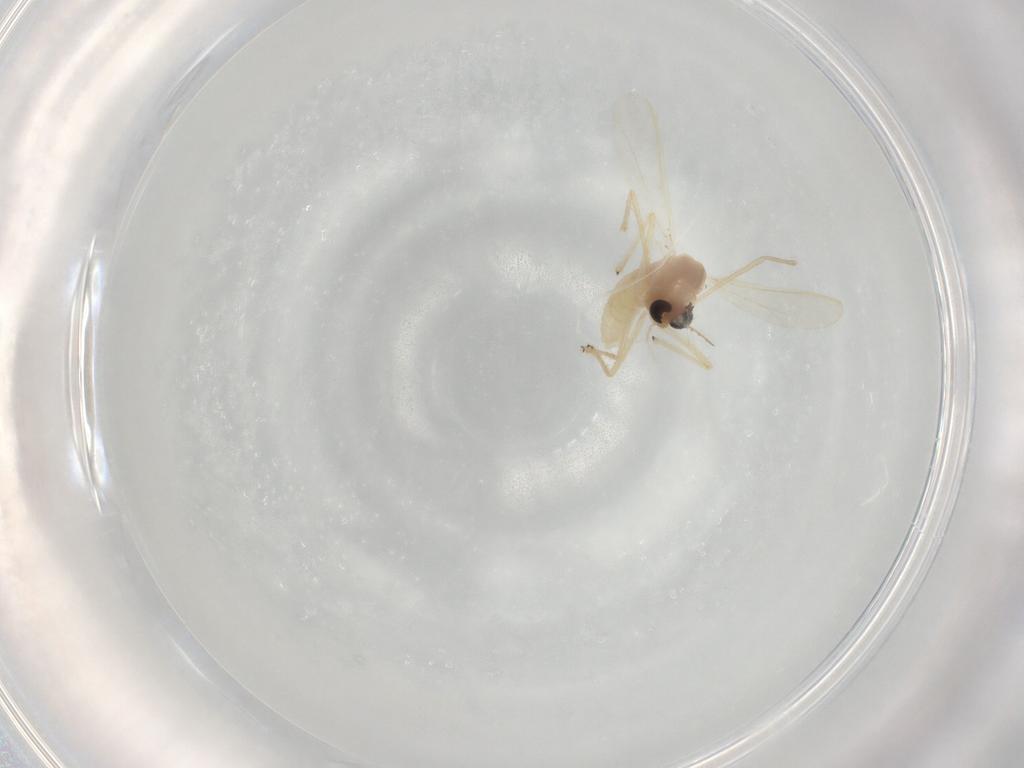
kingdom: Animalia
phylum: Arthropoda
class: Insecta
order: Diptera
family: Chironomidae
